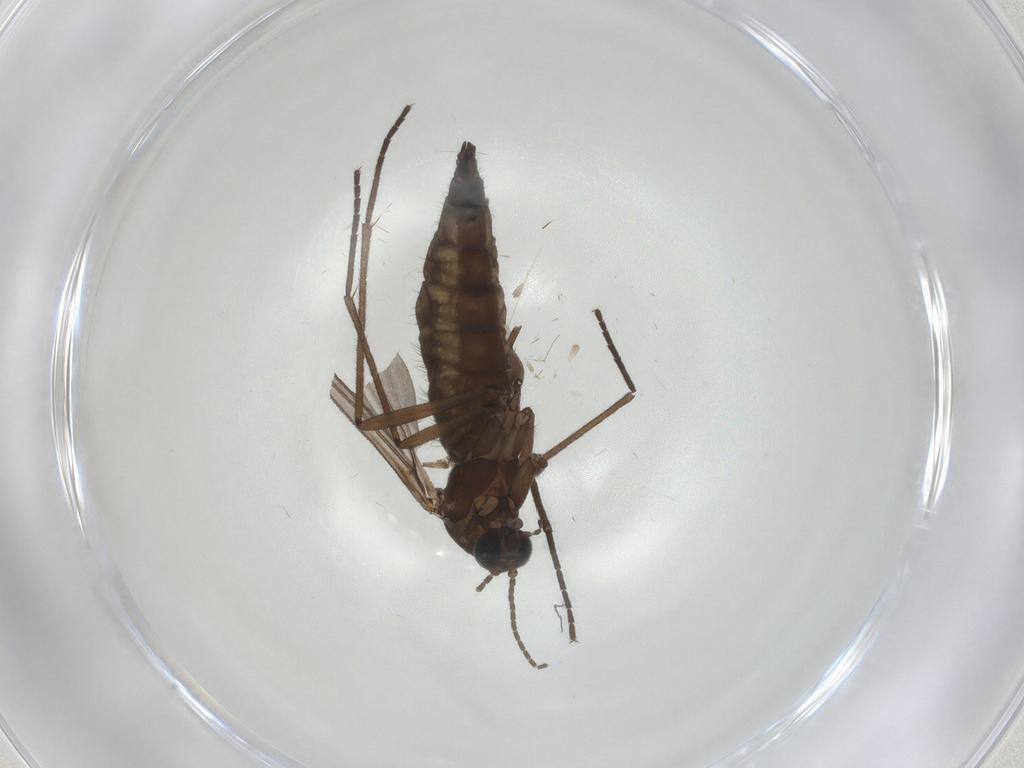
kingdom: Animalia
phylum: Arthropoda
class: Insecta
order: Diptera
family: Sciaridae
